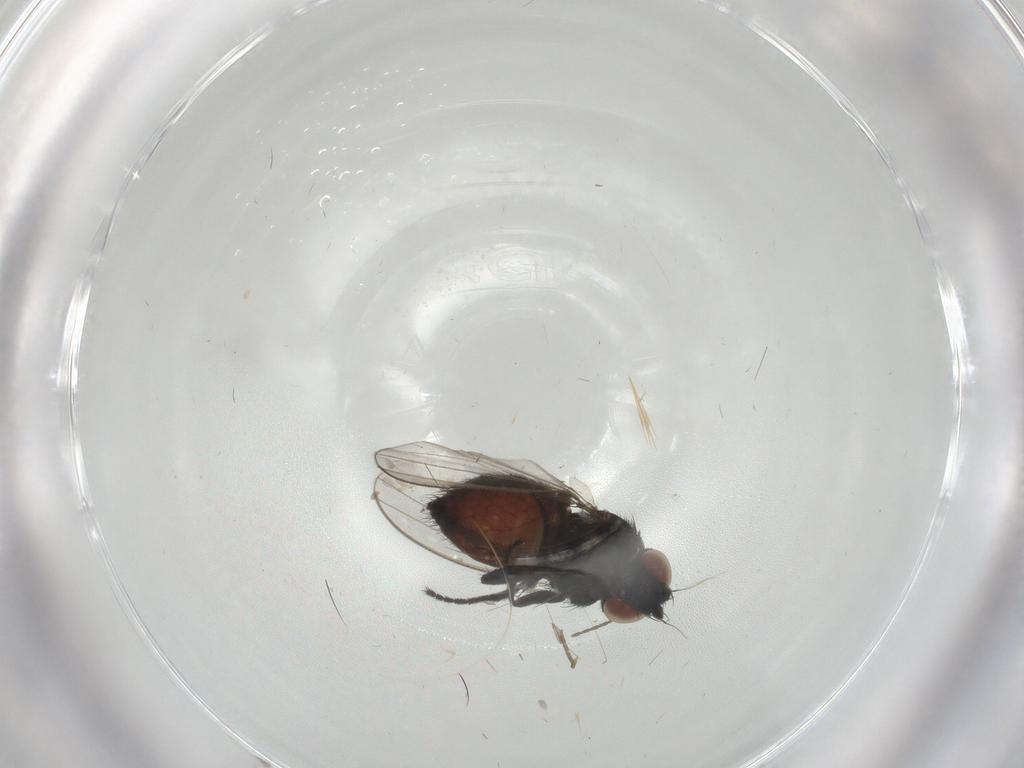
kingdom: Animalia
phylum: Arthropoda
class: Insecta
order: Diptera
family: Milichiidae
